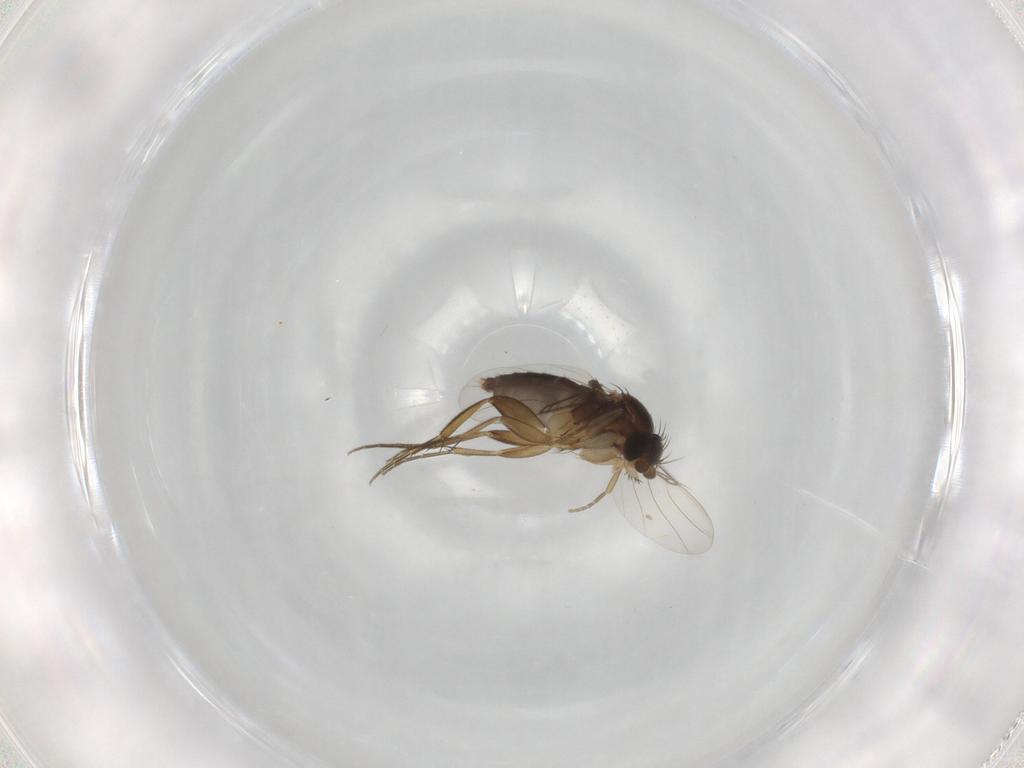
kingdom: Animalia
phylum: Arthropoda
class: Insecta
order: Diptera
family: Phoridae
